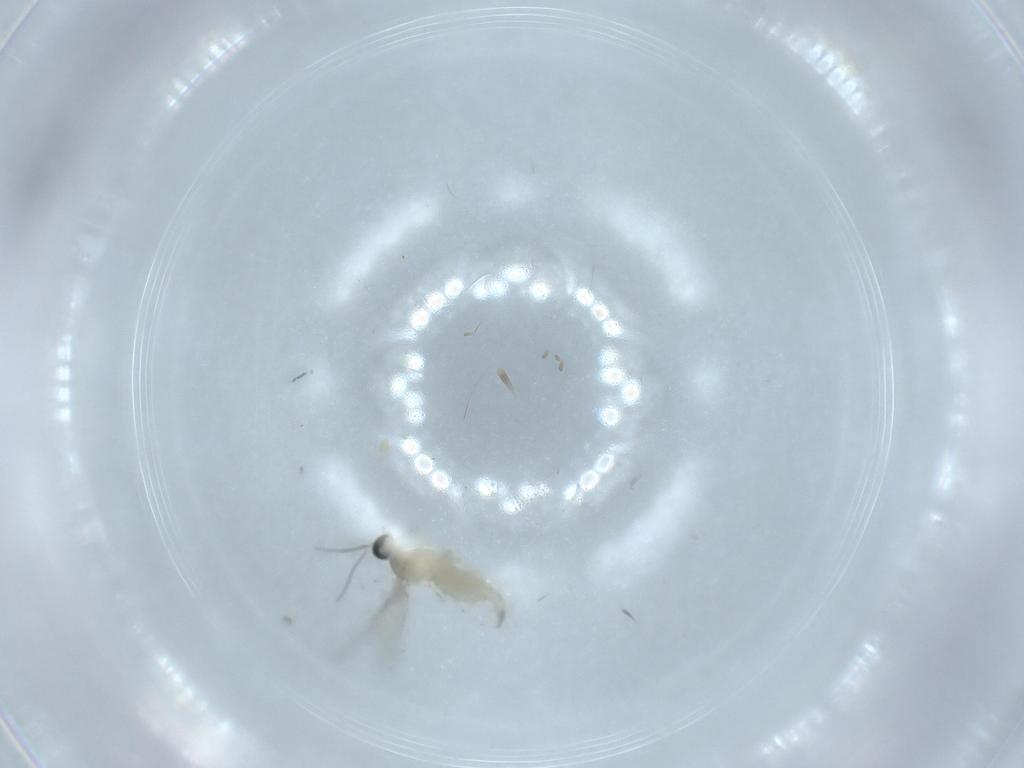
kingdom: Animalia
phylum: Arthropoda
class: Insecta
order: Diptera
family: Cecidomyiidae
